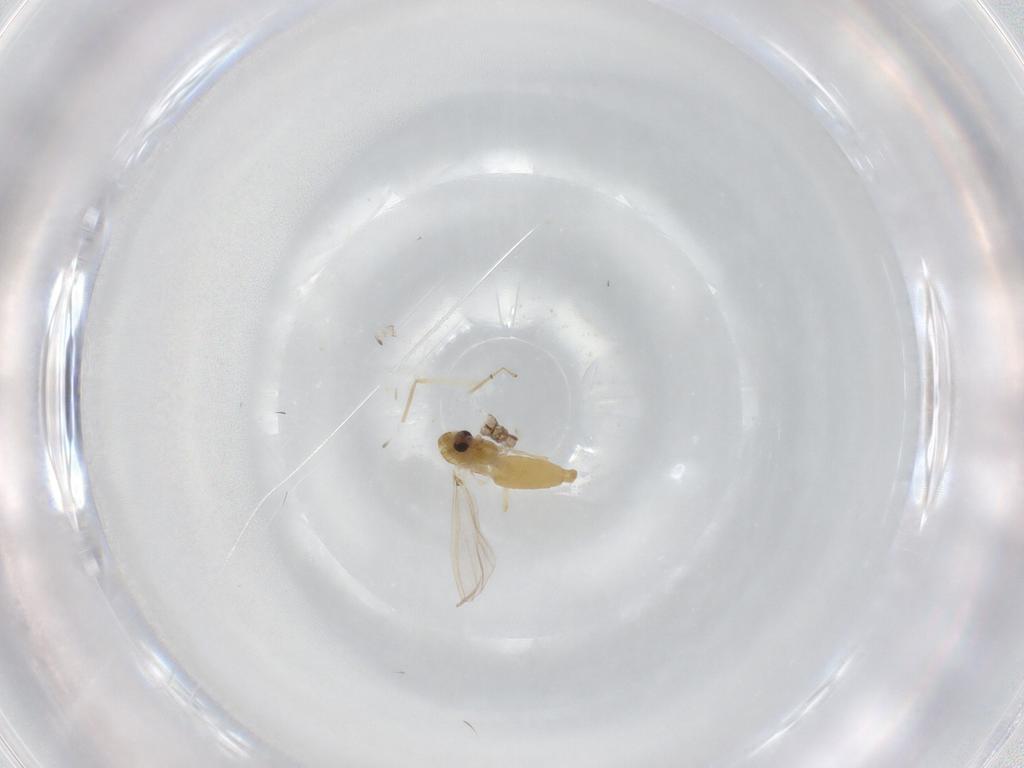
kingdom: Animalia
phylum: Arthropoda
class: Insecta
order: Diptera
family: Chironomidae
